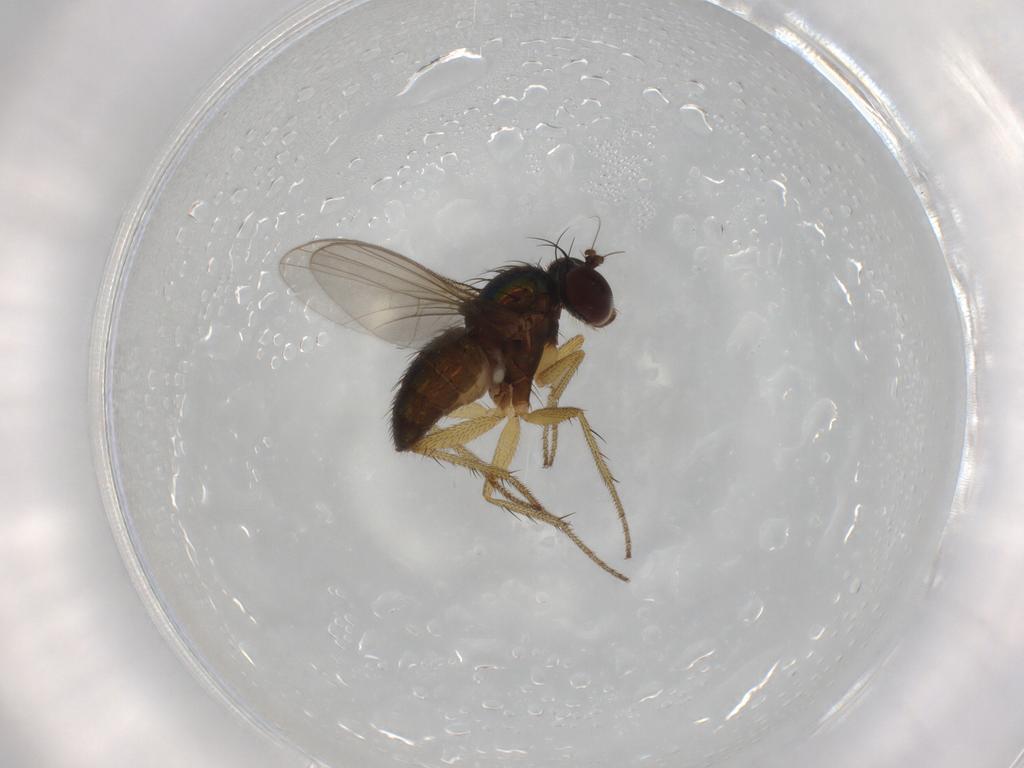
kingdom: Animalia
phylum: Arthropoda
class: Insecta
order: Diptera
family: Dolichopodidae
